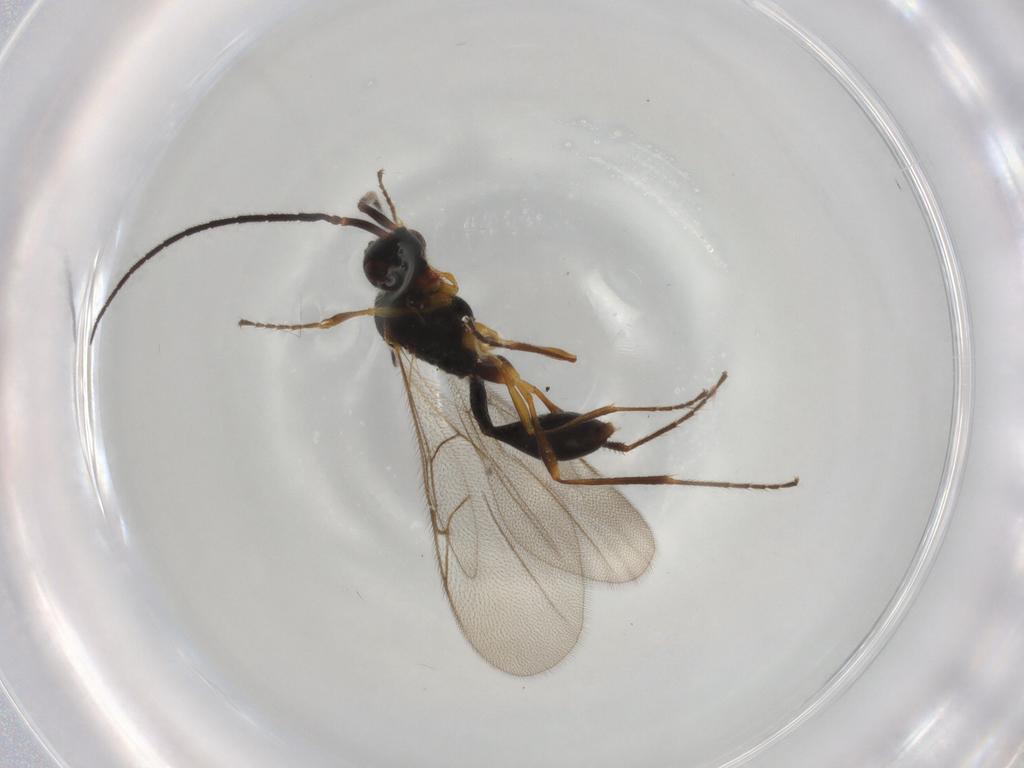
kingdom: Animalia
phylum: Arthropoda
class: Insecta
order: Hymenoptera
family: Diapriidae
